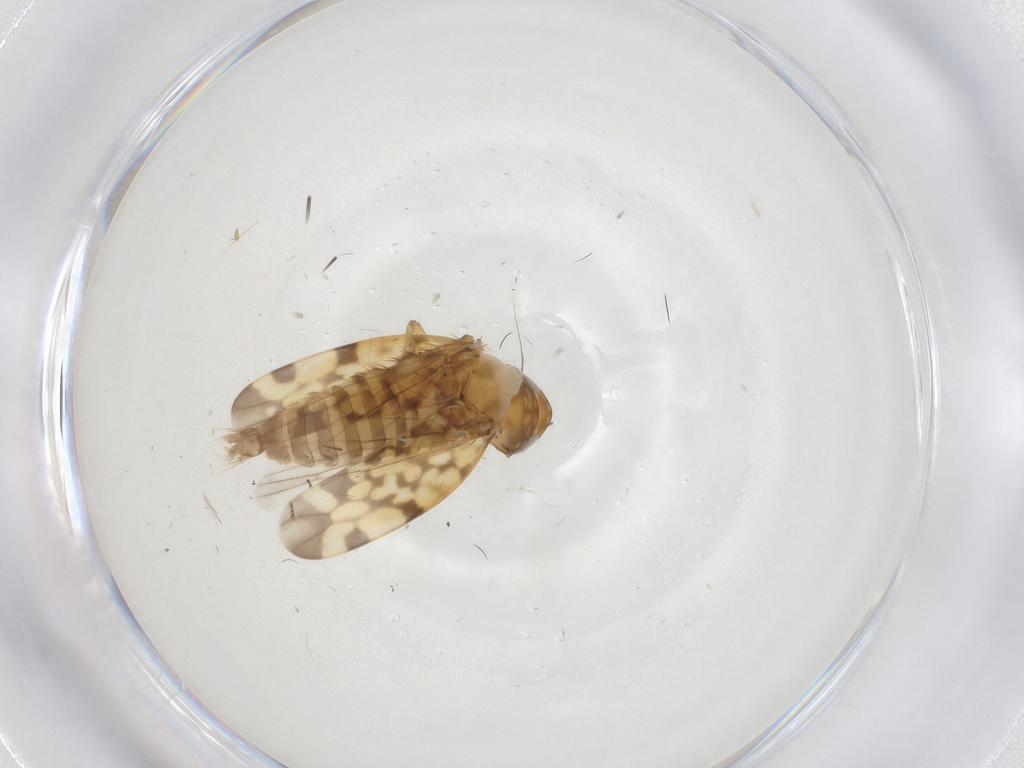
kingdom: Animalia
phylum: Arthropoda
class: Insecta
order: Hemiptera
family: Cicadellidae
